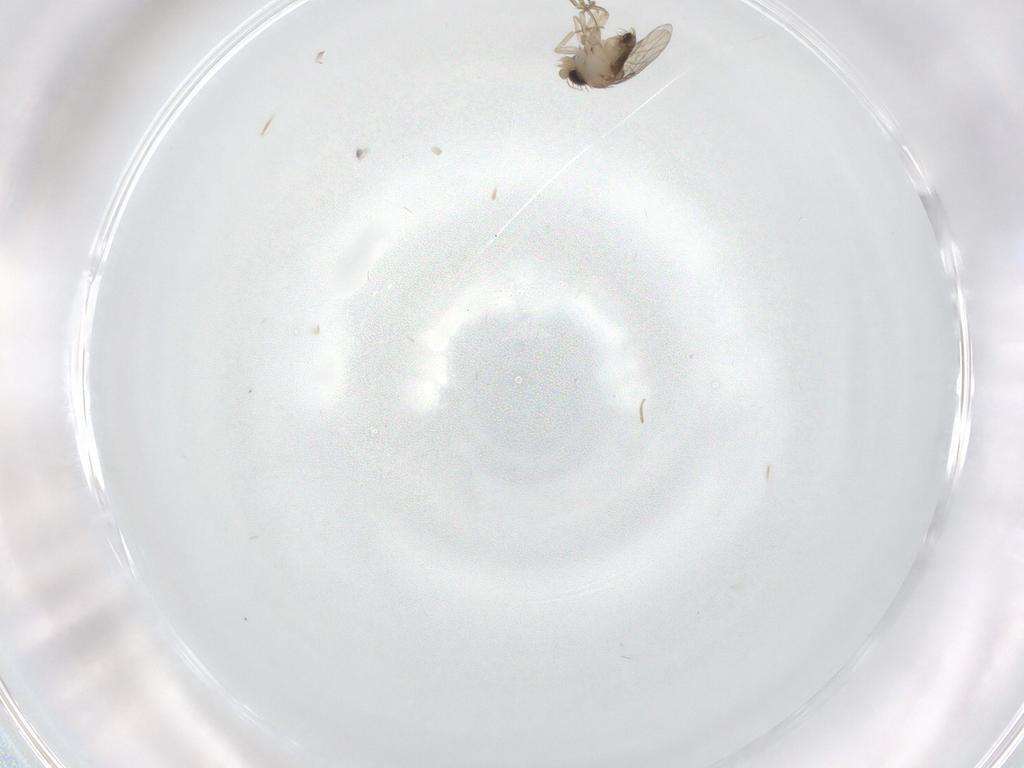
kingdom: Animalia
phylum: Arthropoda
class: Insecta
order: Diptera
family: Phoridae
